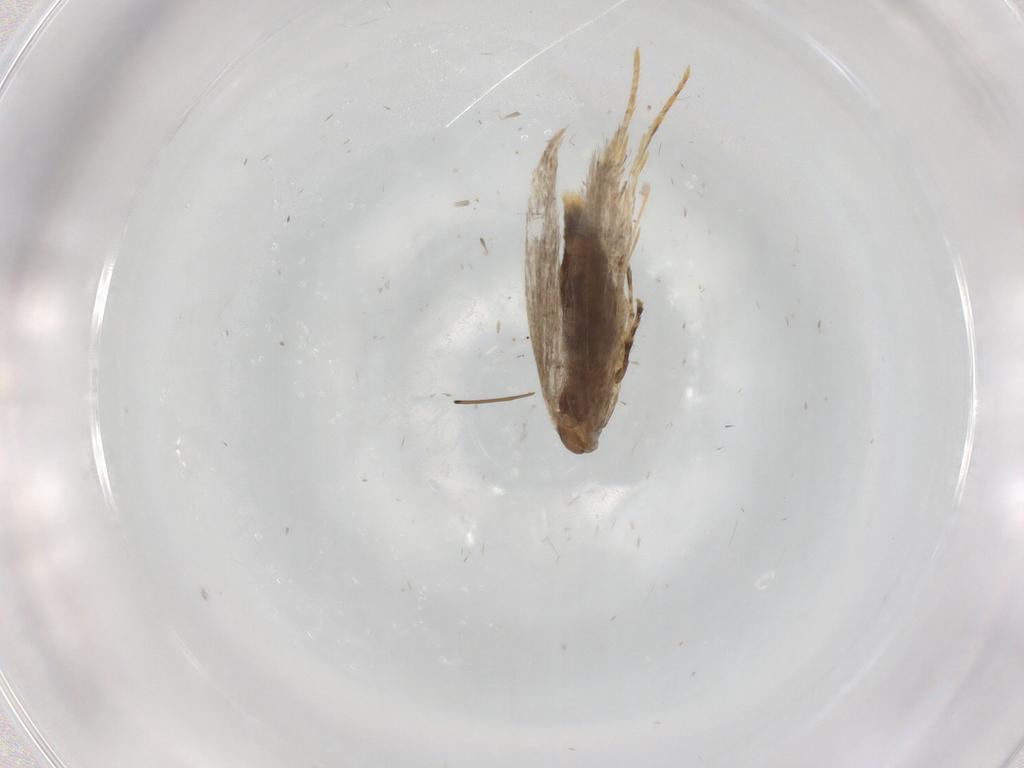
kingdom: Animalia
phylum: Arthropoda
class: Insecta
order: Lepidoptera
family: Tineidae
